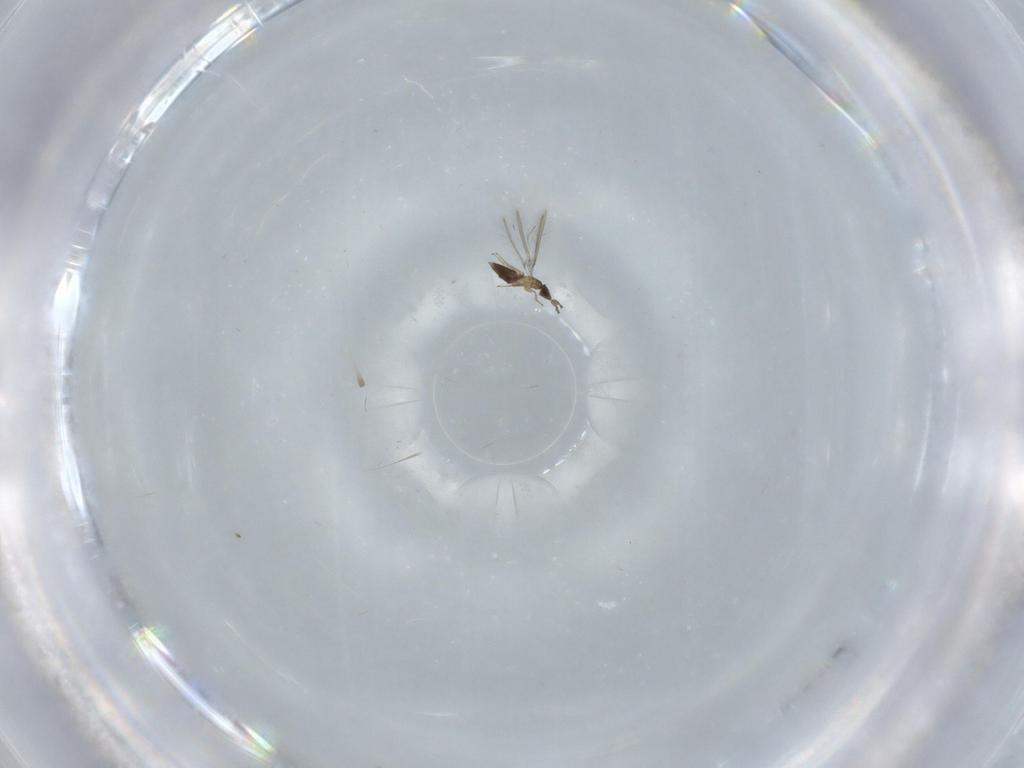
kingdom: Animalia
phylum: Arthropoda
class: Insecta
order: Hymenoptera
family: Mymaridae
